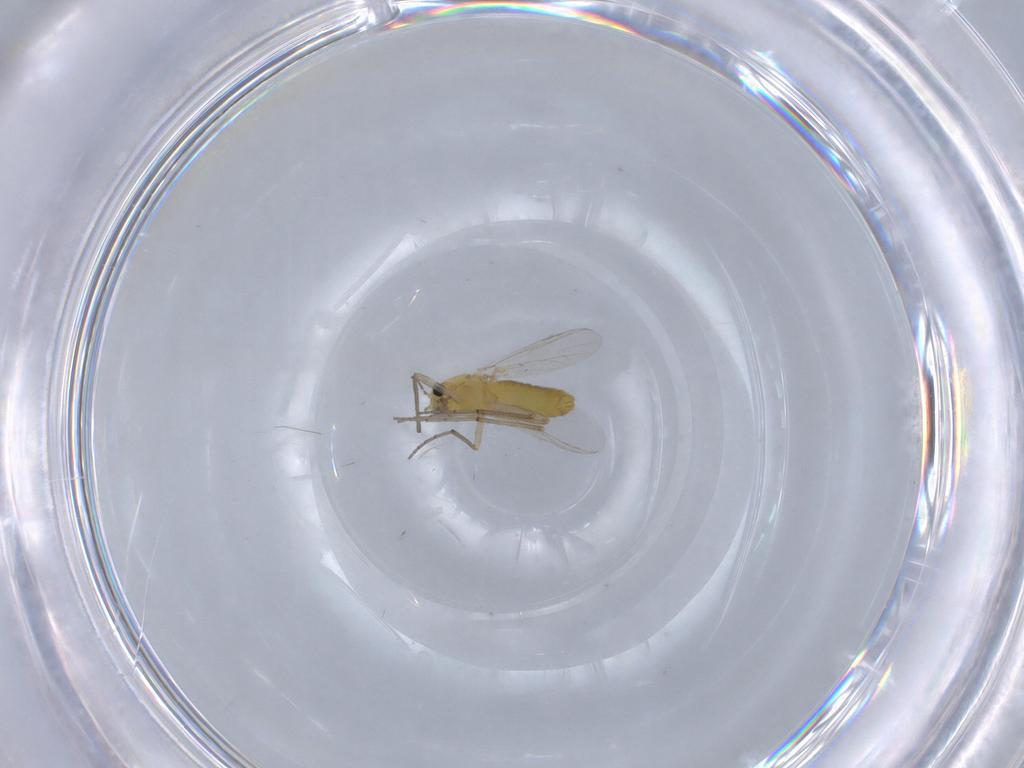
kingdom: Animalia
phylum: Arthropoda
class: Insecta
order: Diptera
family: Chironomidae
